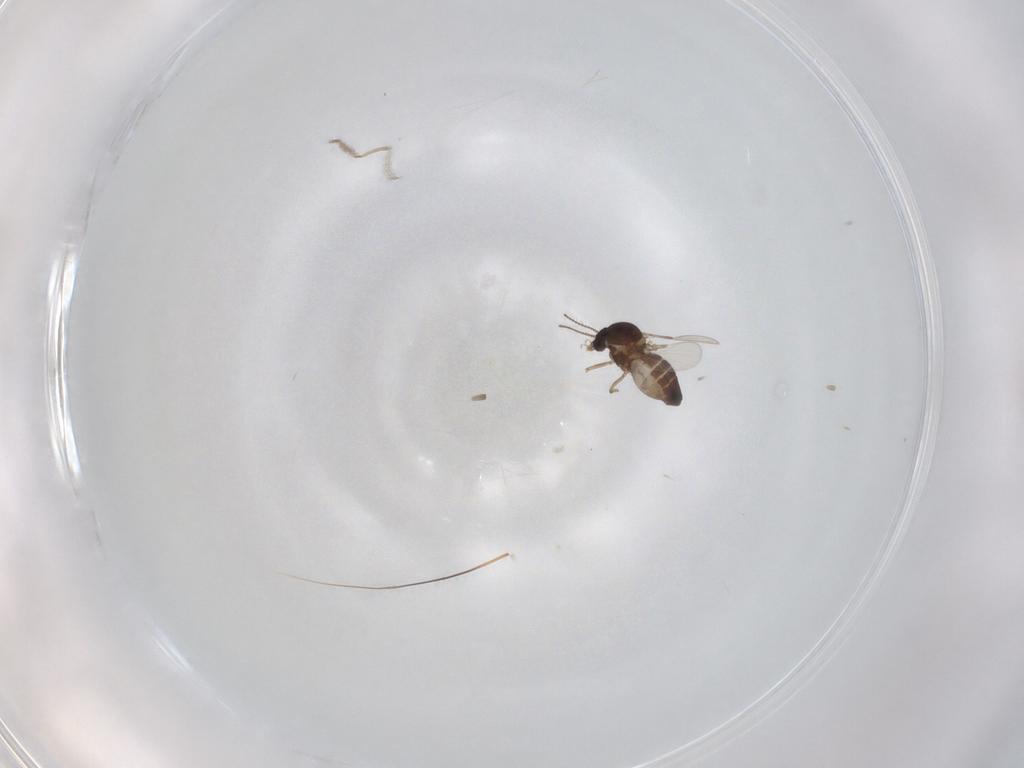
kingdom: Animalia
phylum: Arthropoda
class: Insecta
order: Diptera
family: Ceratopogonidae
